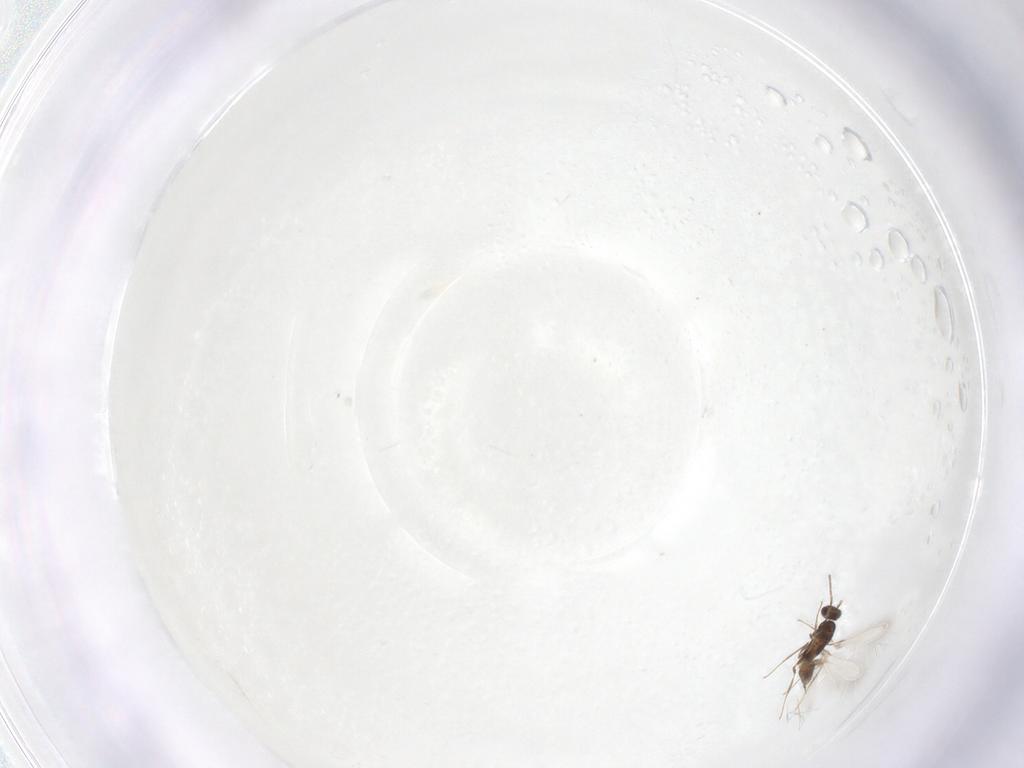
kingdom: Animalia
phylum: Arthropoda
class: Insecta
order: Hymenoptera
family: Mymaridae
